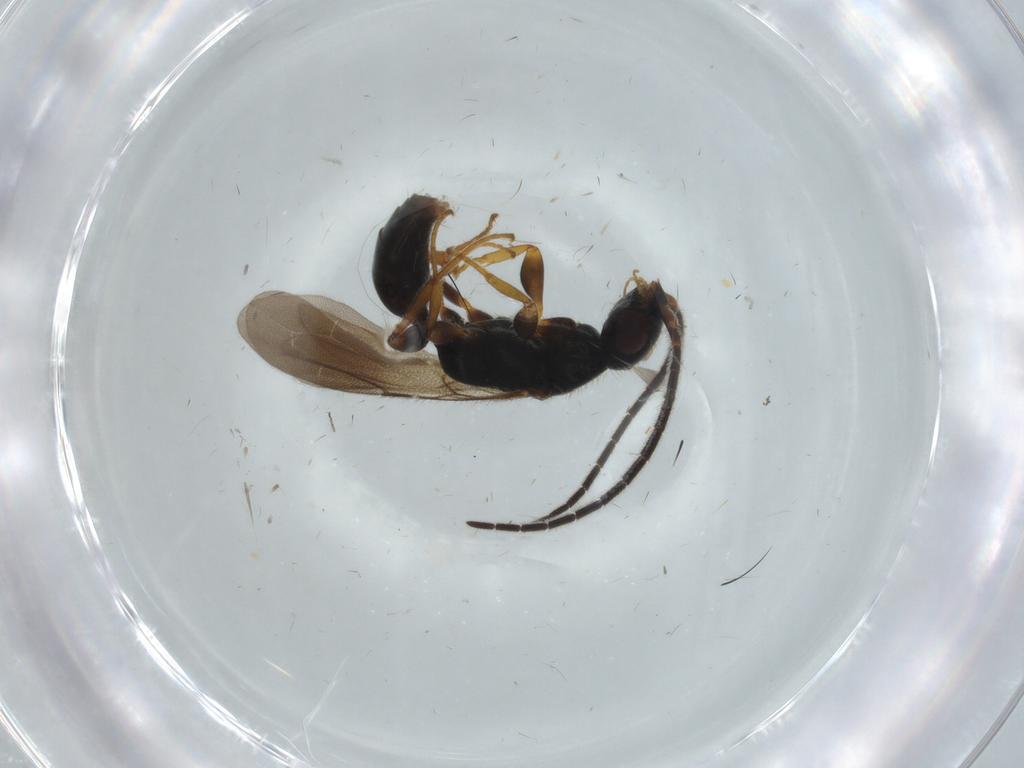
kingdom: Animalia
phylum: Arthropoda
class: Insecta
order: Hymenoptera
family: Bethylidae
